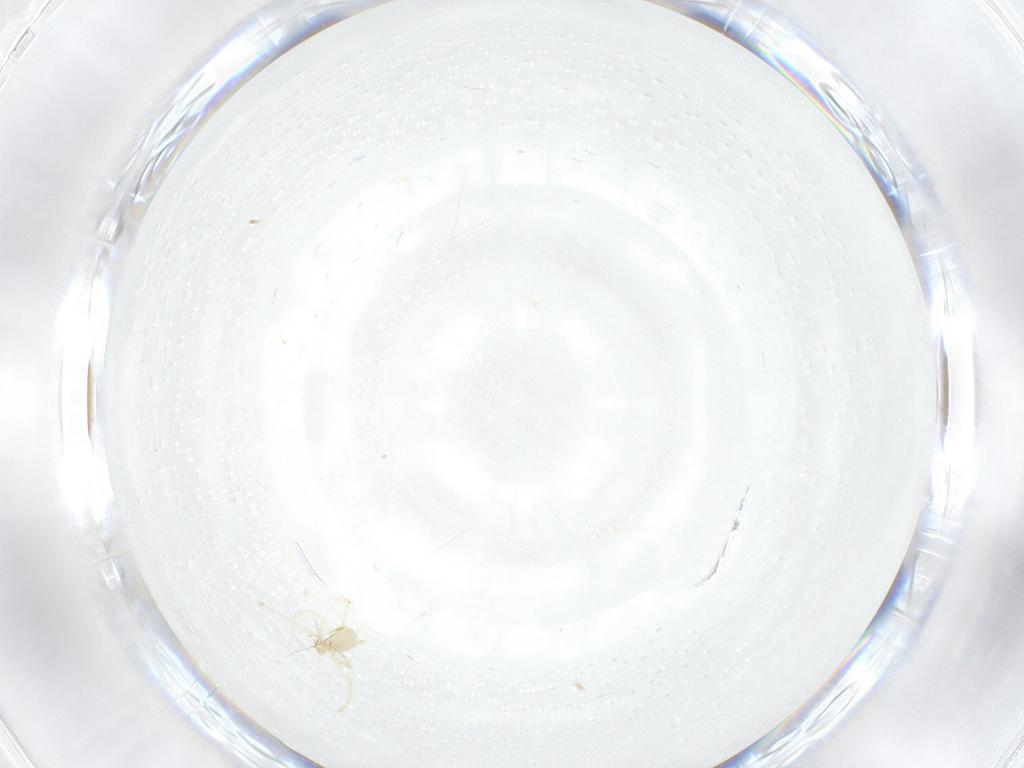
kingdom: Animalia
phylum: Arthropoda
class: Arachnida
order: Trombidiformes
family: Erythraeidae
